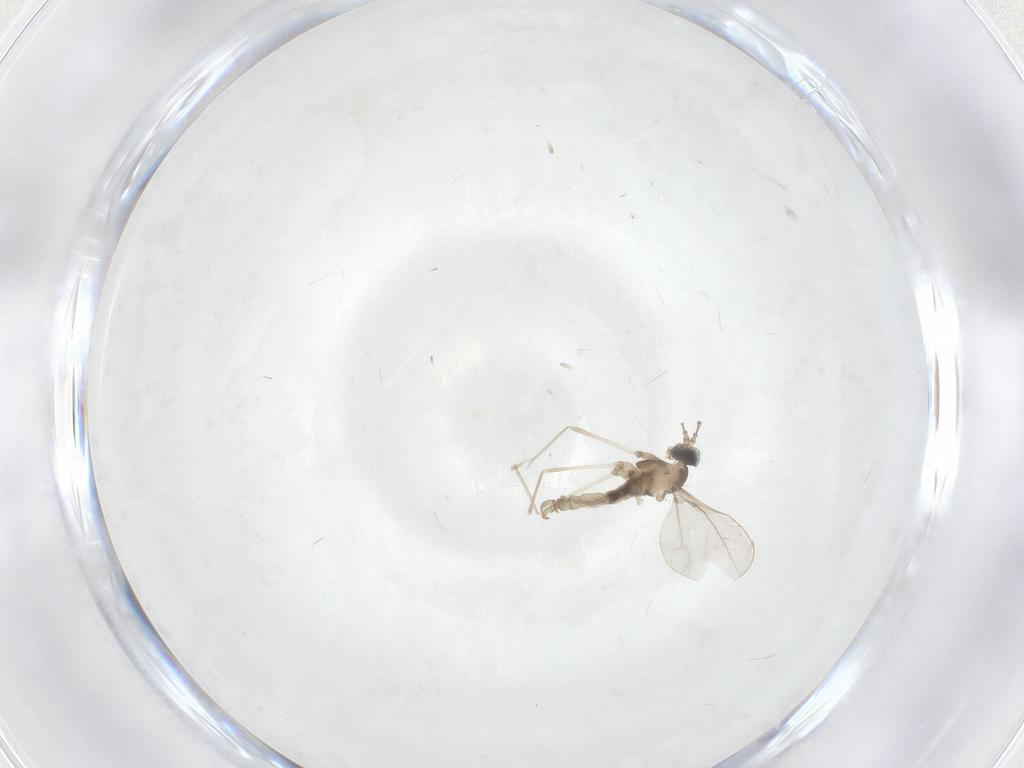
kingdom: Animalia
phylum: Arthropoda
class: Insecta
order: Diptera
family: Cecidomyiidae
